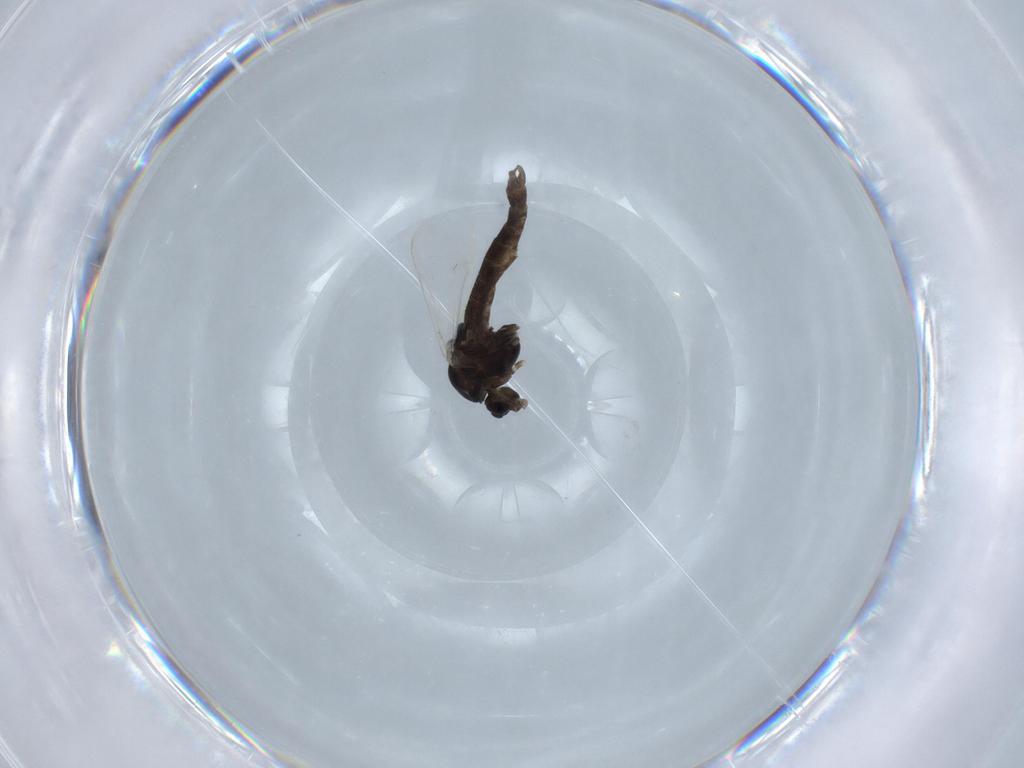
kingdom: Animalia
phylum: Arthropoda
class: Insecta
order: Diptera
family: Chironomidae
